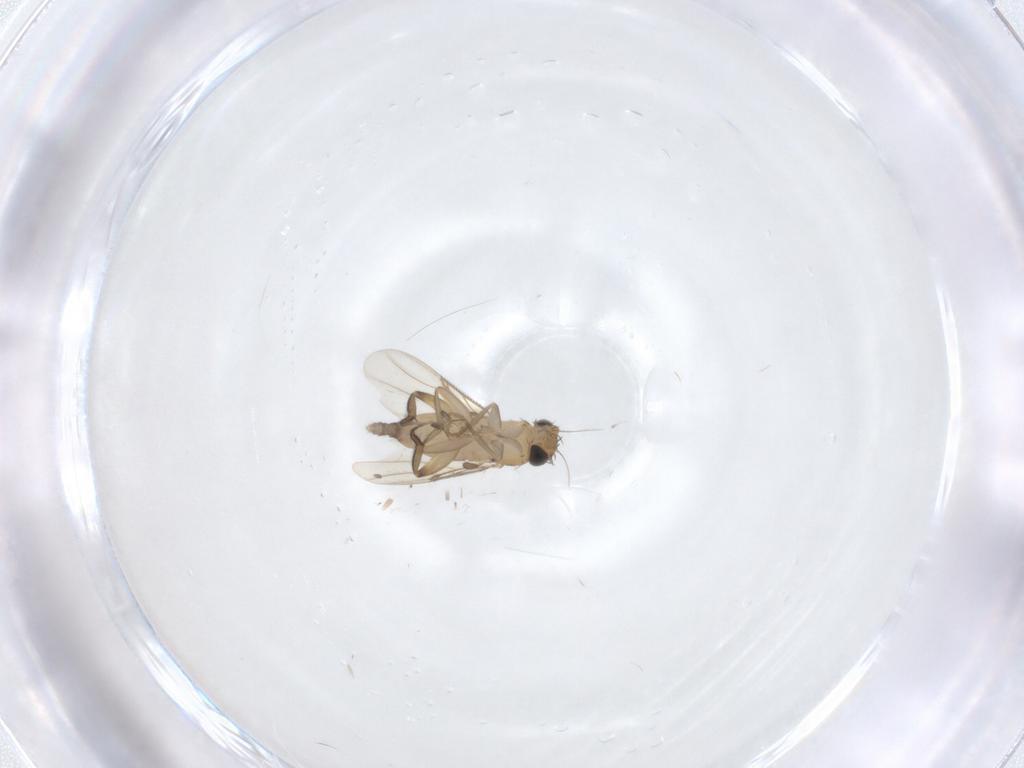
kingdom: Animalia
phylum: Arthropoda
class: Insecta
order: Diptera
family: Phoridae
